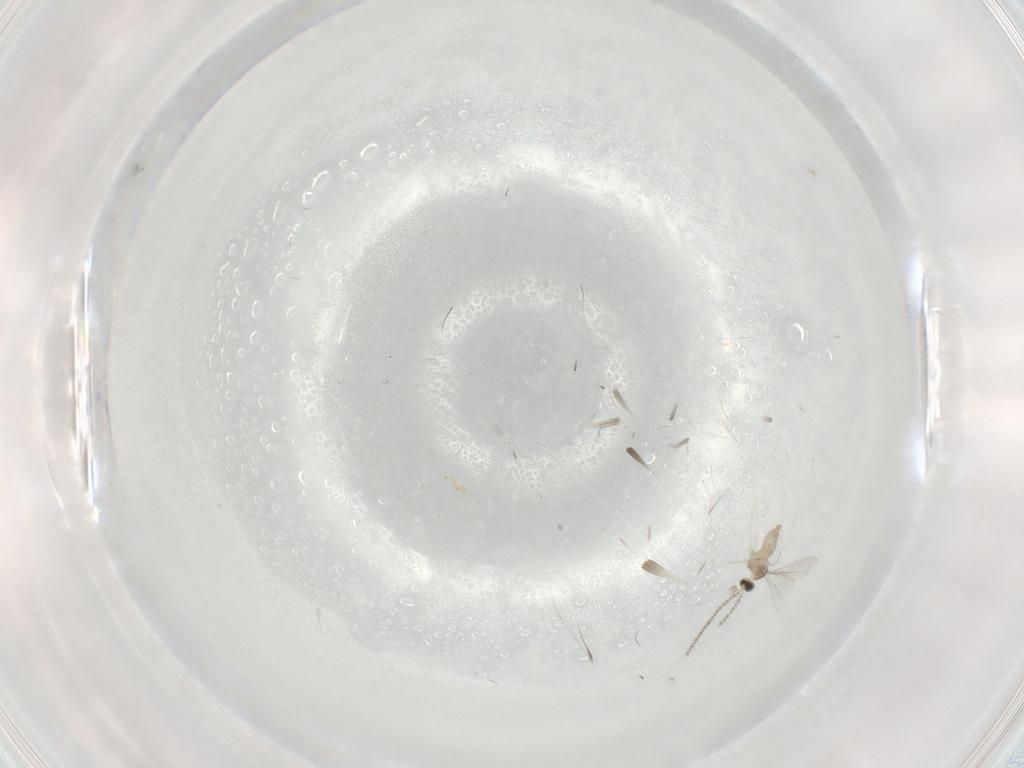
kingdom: Animalia
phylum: Arthropoda
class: Insecta
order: Diptera
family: Cecidomyiidae
